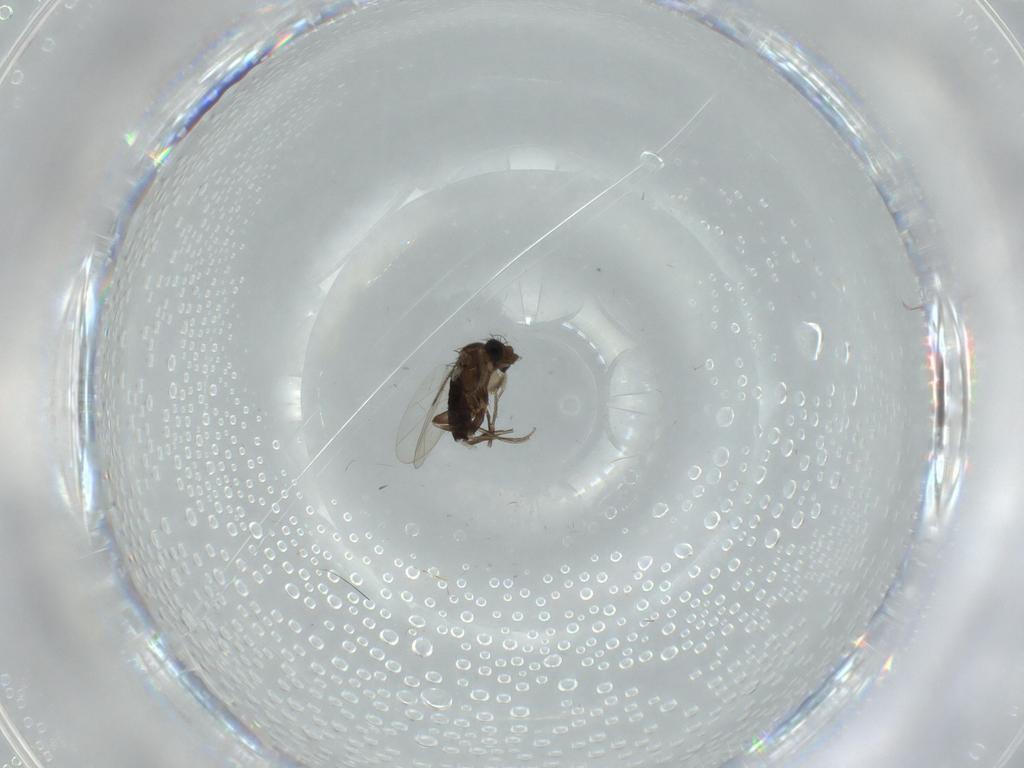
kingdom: Animalia
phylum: Arthropoda
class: Insecta
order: Diptera
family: Phoridae
